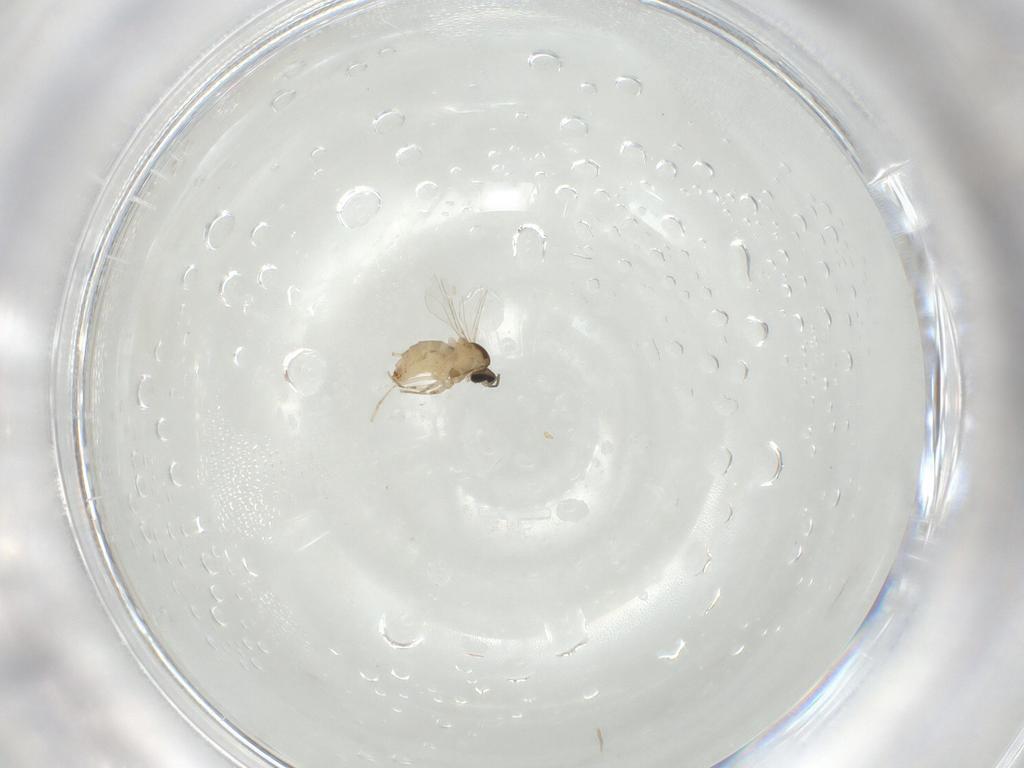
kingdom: Animalia
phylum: Arthropoda
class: Insecta
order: Diptera
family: Cecidomyiidae
